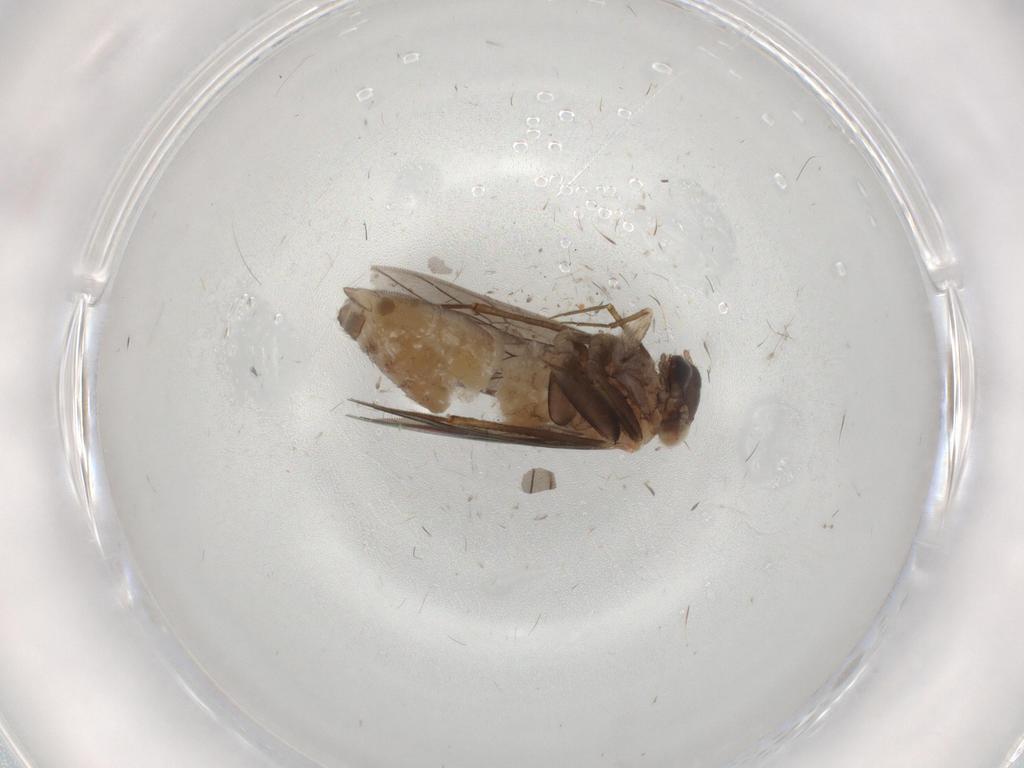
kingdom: Animalia
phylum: Arthropoda
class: Insecta
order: Psocodea
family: Lepidopsocidae
